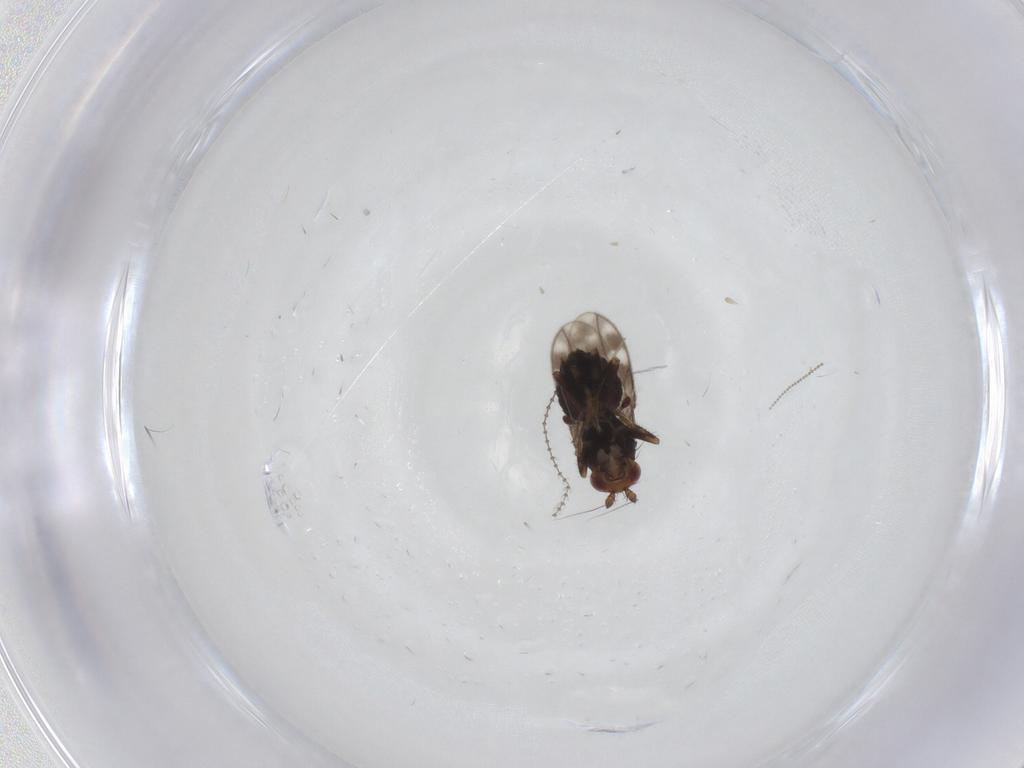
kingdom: Animalia
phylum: Arthropoda
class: Insecta
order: Diptera
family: Sphaeroceridae
